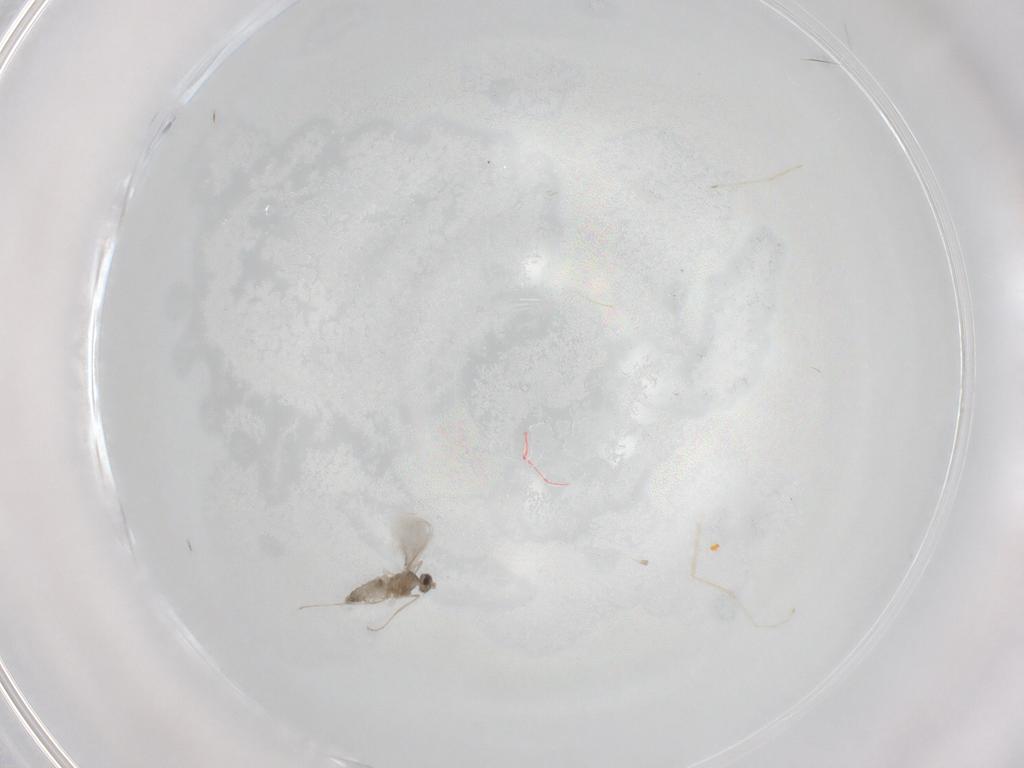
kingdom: Animalia
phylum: Arthropoda
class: Insecta
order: Diptera
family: Cecidomyiidae
